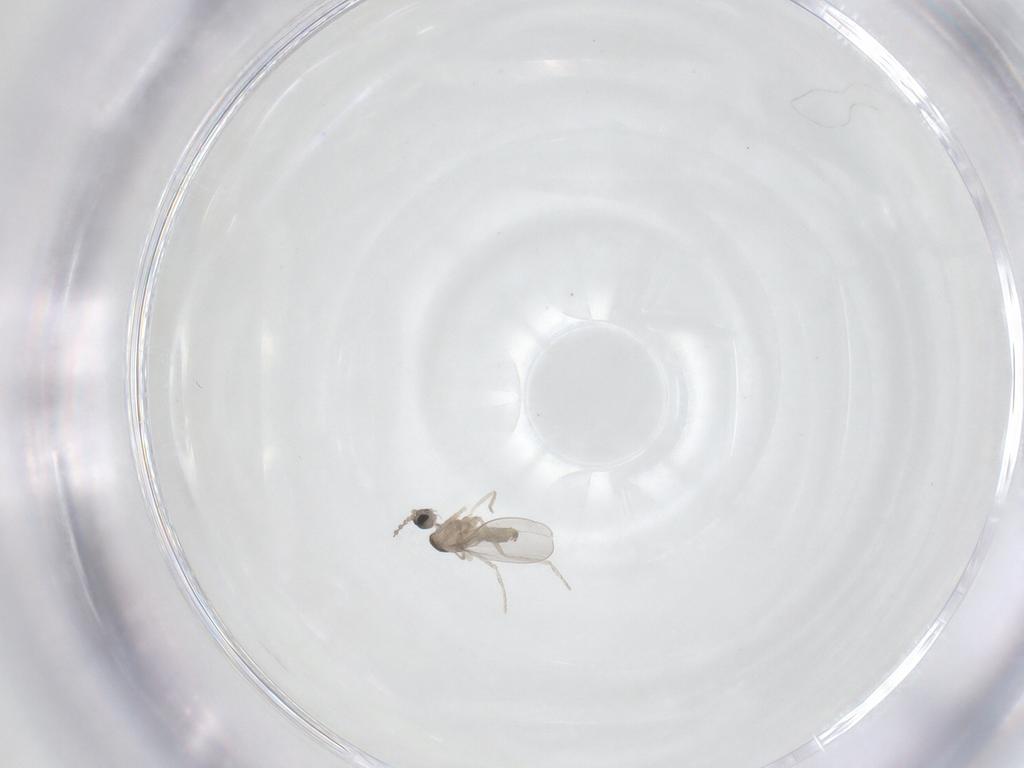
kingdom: Animalia
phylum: Arthropoda
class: Insecta
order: Diptera
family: Cecidomyiidae
